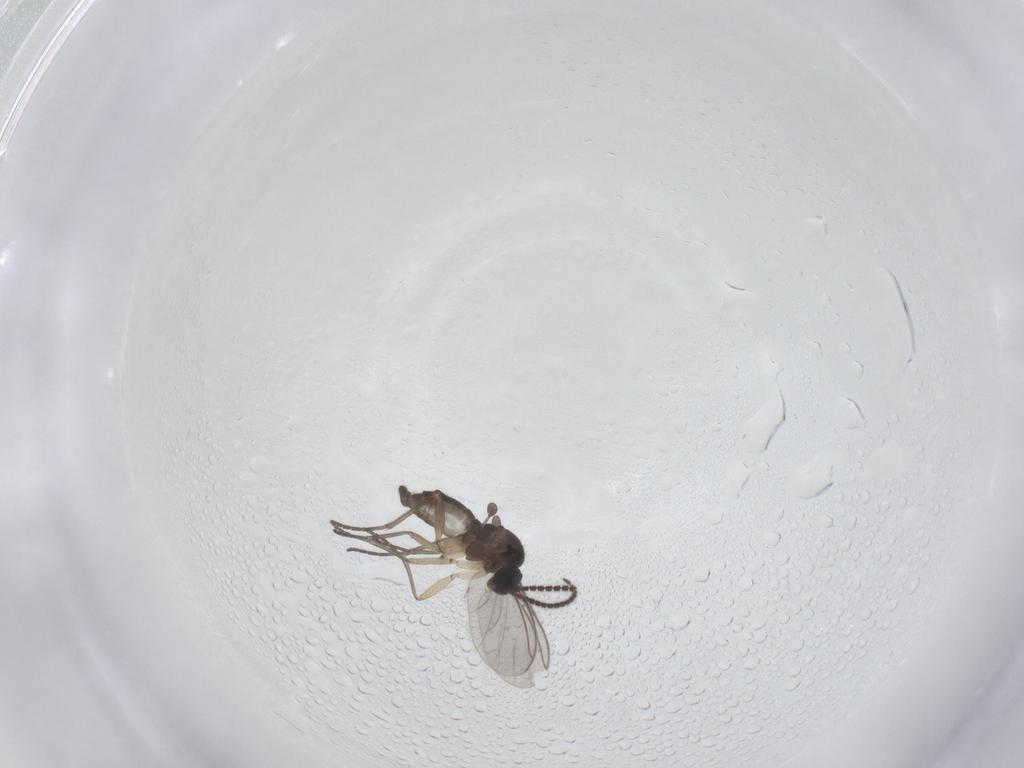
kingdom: Animalia
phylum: Arthropoda
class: Insecta
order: Diptera
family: Sciaridae
